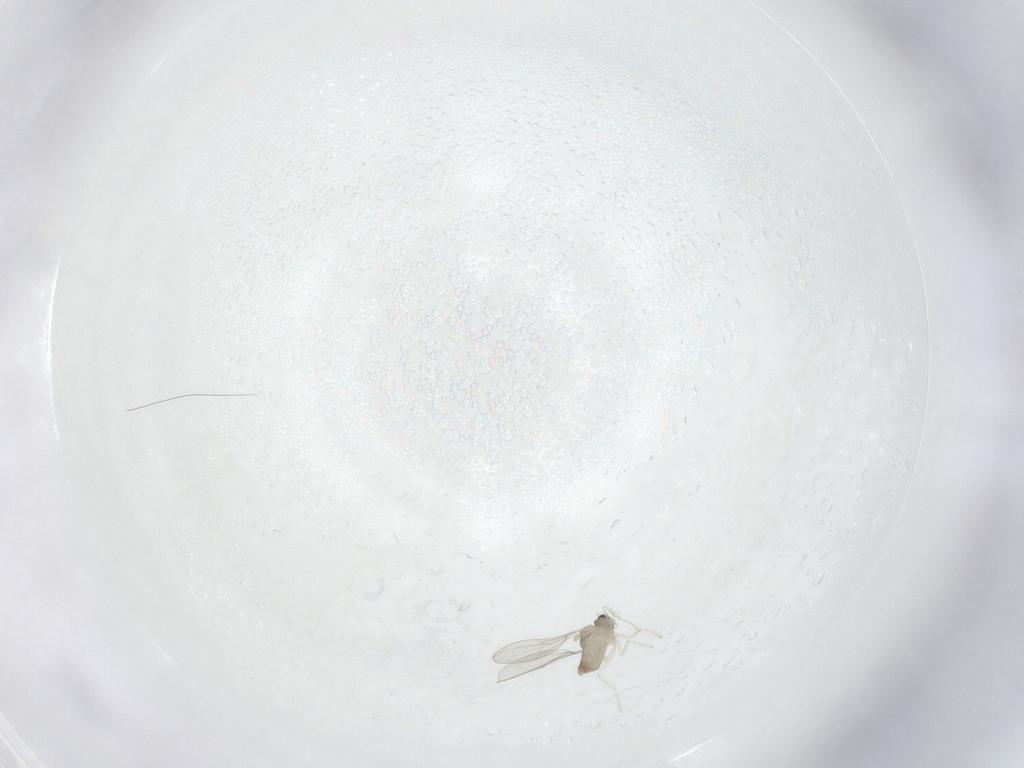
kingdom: Animalia
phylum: Arthropoda
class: Insecta
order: Diptera
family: Cecidomyiidae
